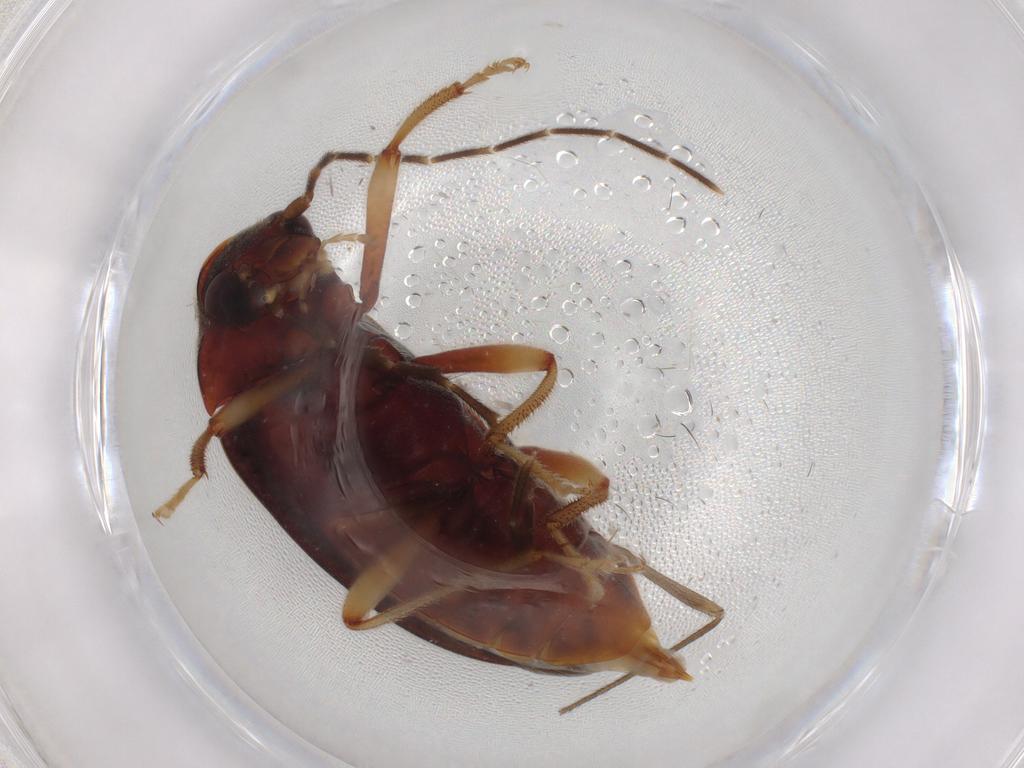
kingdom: Animalia
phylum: Arthropoda
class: Insecta
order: Coleoptera
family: Ptilodactylidae
